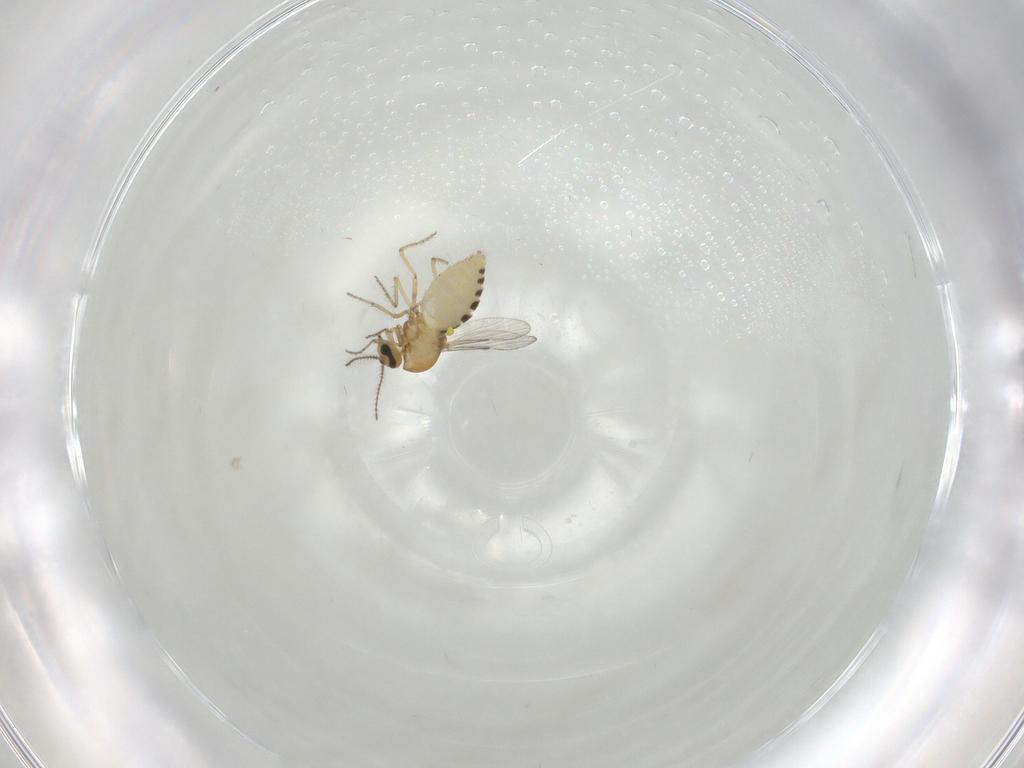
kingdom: Animalia
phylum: Arthropoda
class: Insecta
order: Diptera
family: Ceratopogonidae
